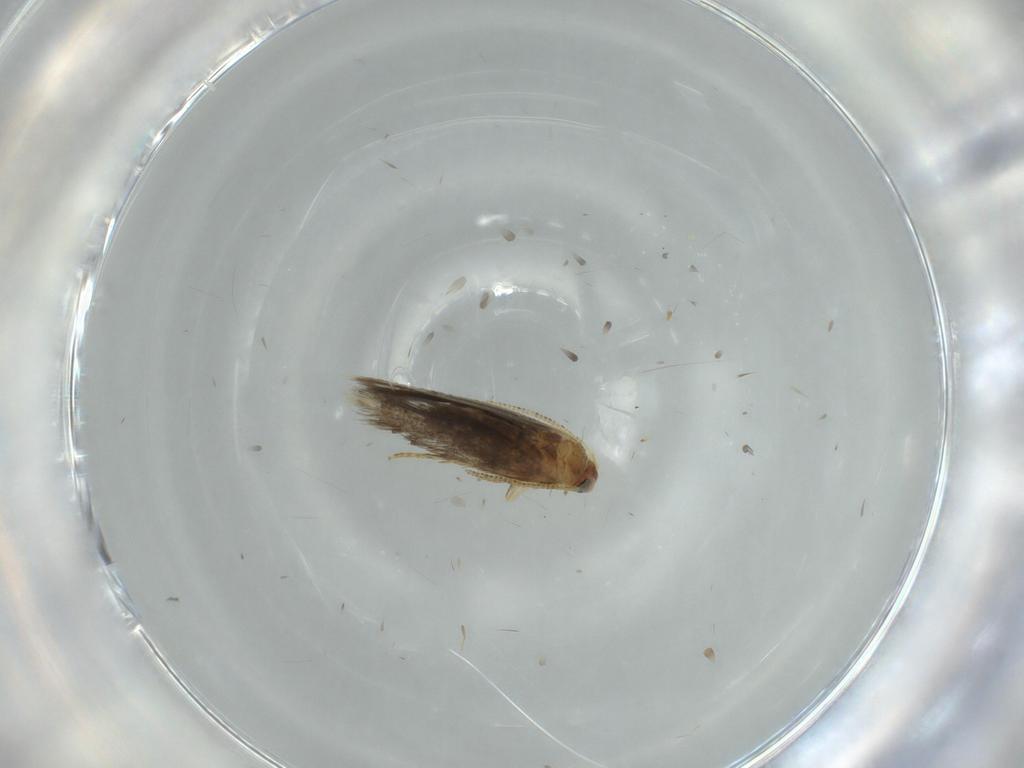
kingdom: Animalia
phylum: Arthropoda
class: Insecta
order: Lepidoptera
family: Nepticulidae
